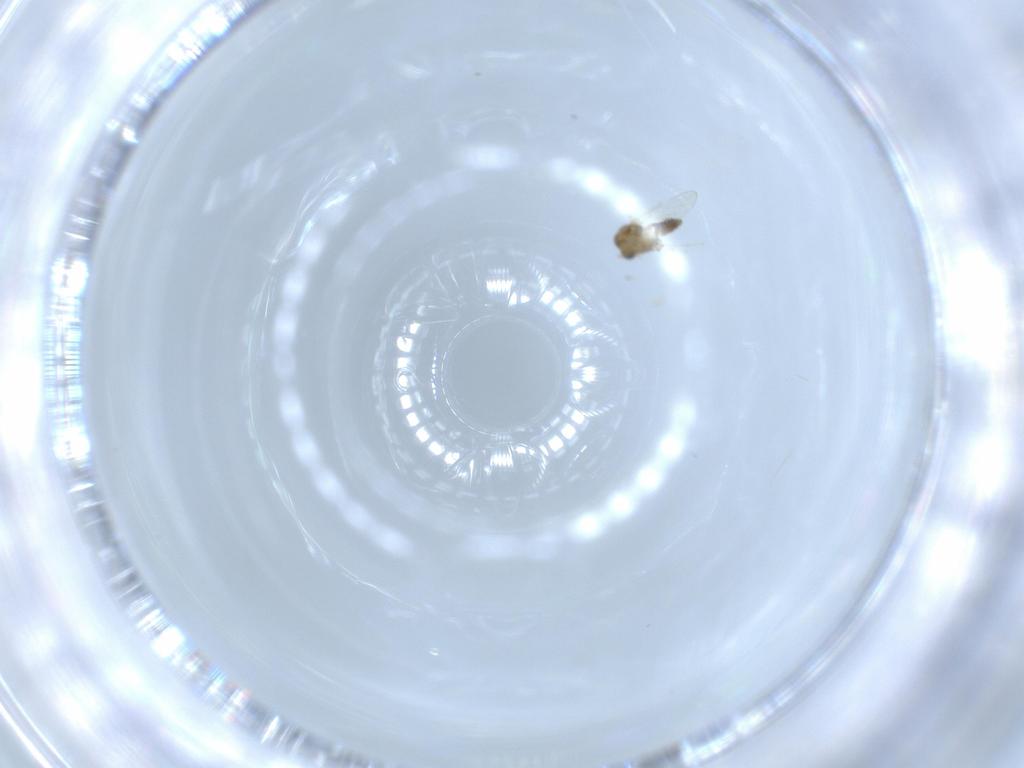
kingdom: Animalia
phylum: Arthropoda
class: Insecta
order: Diptera
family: Chironomidae
